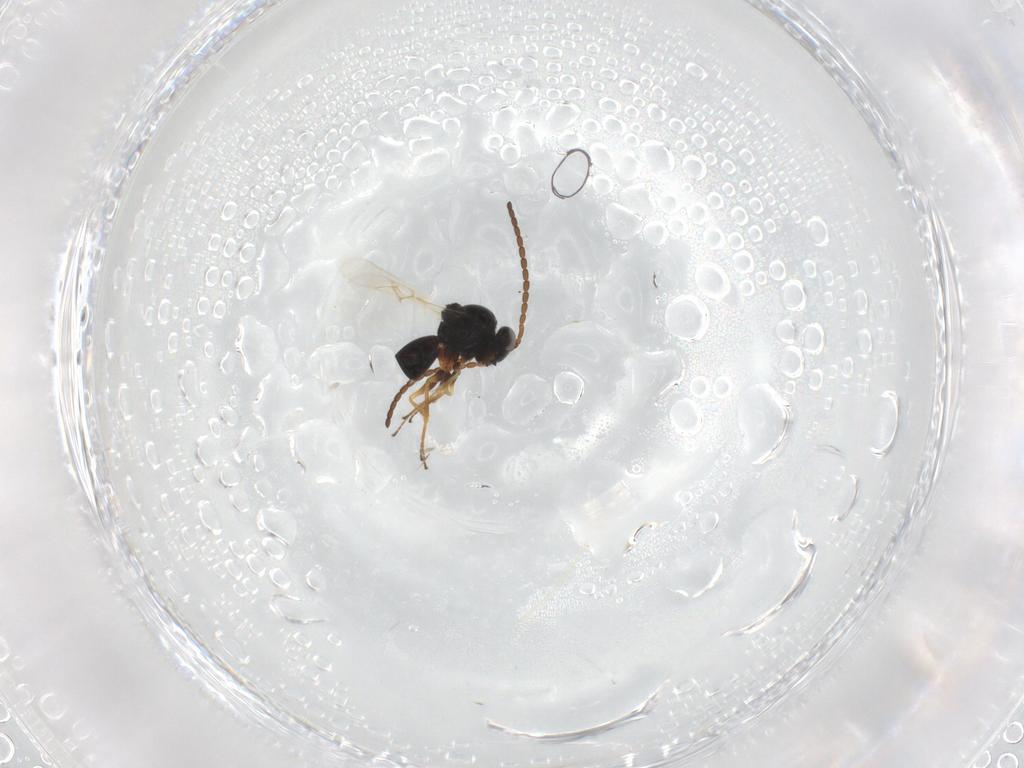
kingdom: Animalia
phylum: Arthropoda
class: Insecta
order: Hymenoptera
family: Figitidae
